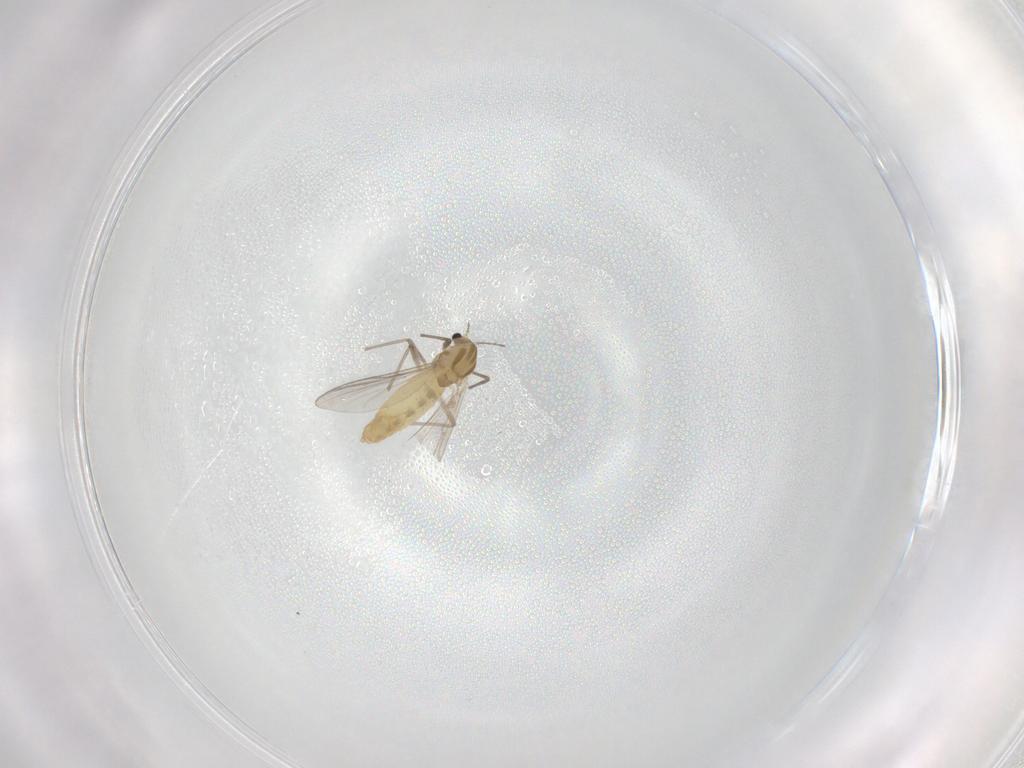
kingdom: Animalia
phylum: Arthropoda
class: Insecta
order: Diptera
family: Chironomidae
